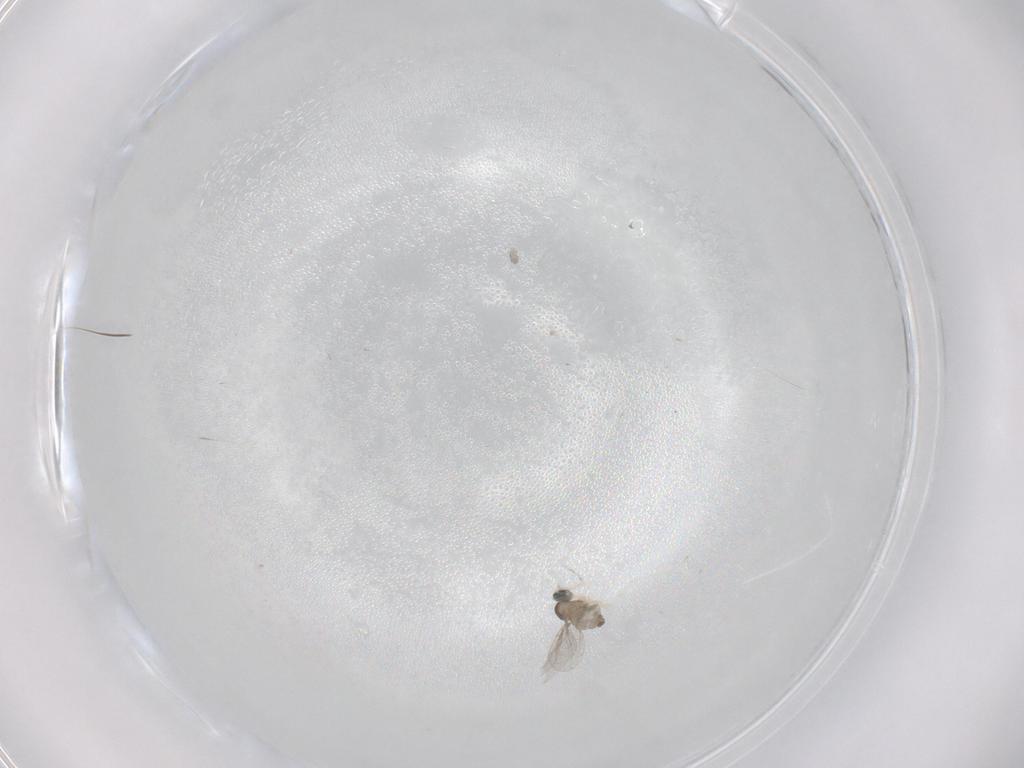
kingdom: Animalia
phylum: Arthropoda
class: Insecta
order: Diptera
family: Cecidomyiidae
